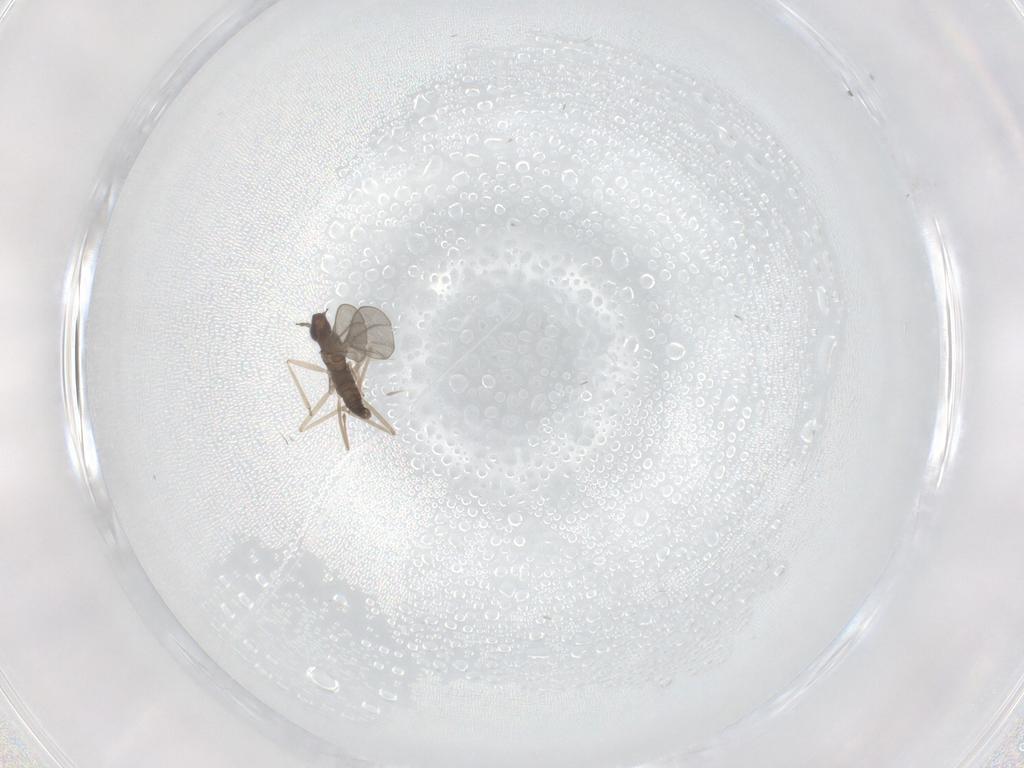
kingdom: Animalia
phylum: Arthropoda
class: Insecta
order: Diptera
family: Cecidomyiidae
